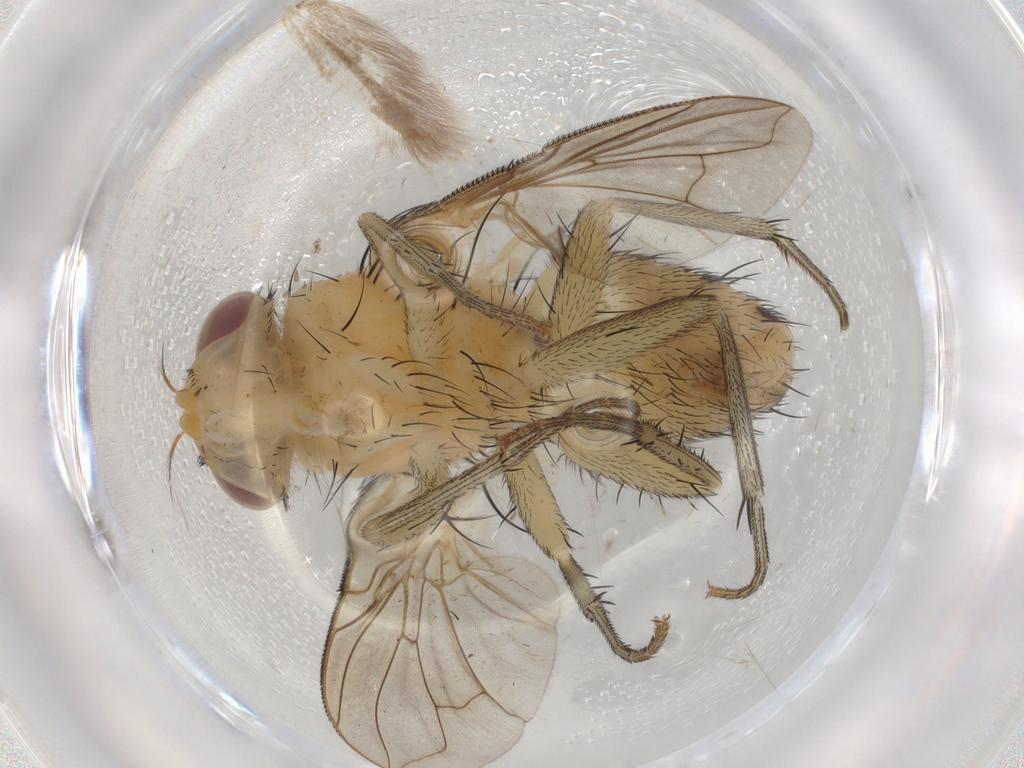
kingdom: Animalia
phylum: Arthropoda
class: Insecta
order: Diptera
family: Calliphoridae
